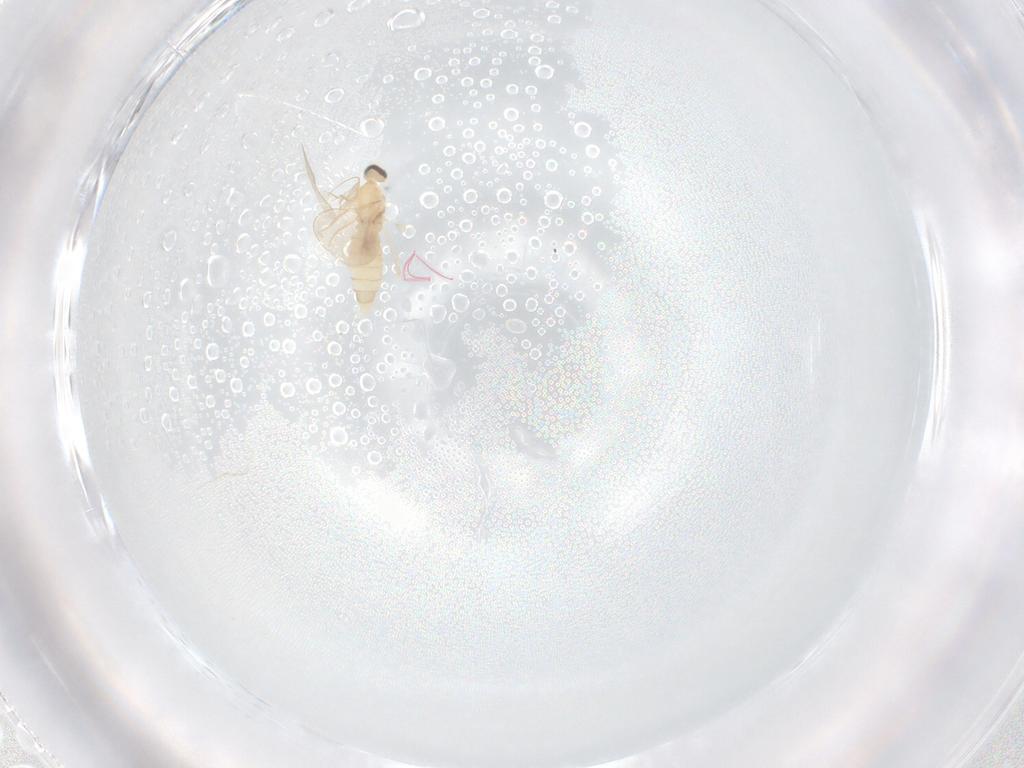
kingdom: Animalia
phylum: Arthropoda
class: Insecta
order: Diptera
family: Cecidomyiidae
